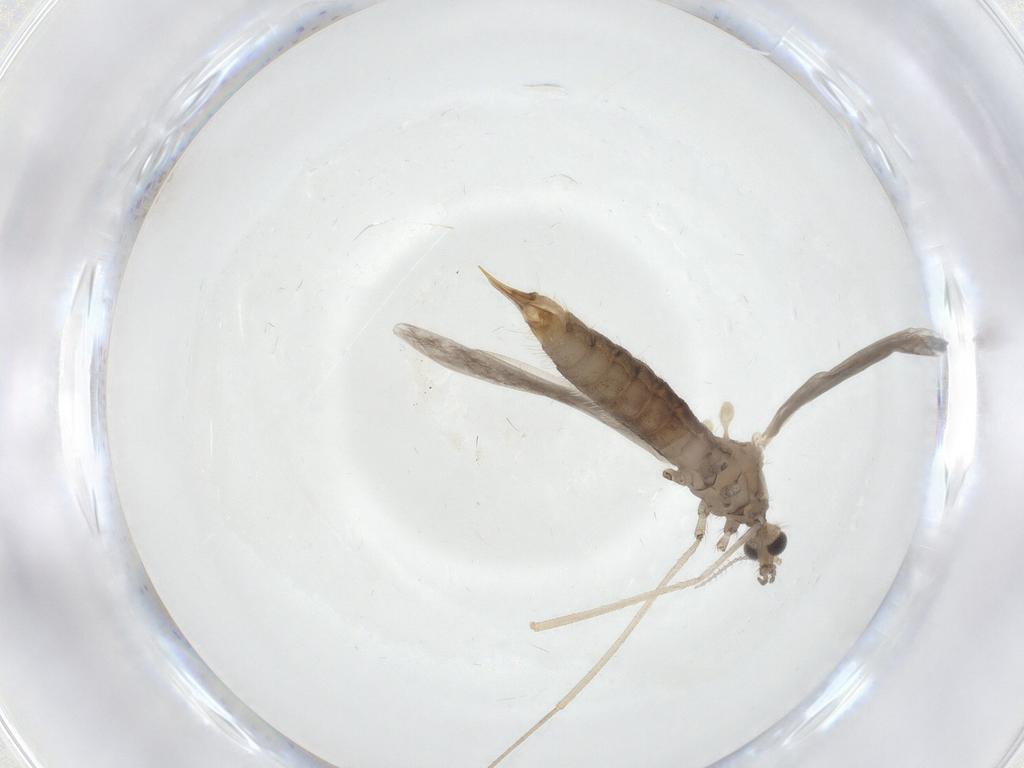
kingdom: Animalia
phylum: Arthropoda
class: Insecta
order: Diptera
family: Limoniidae
